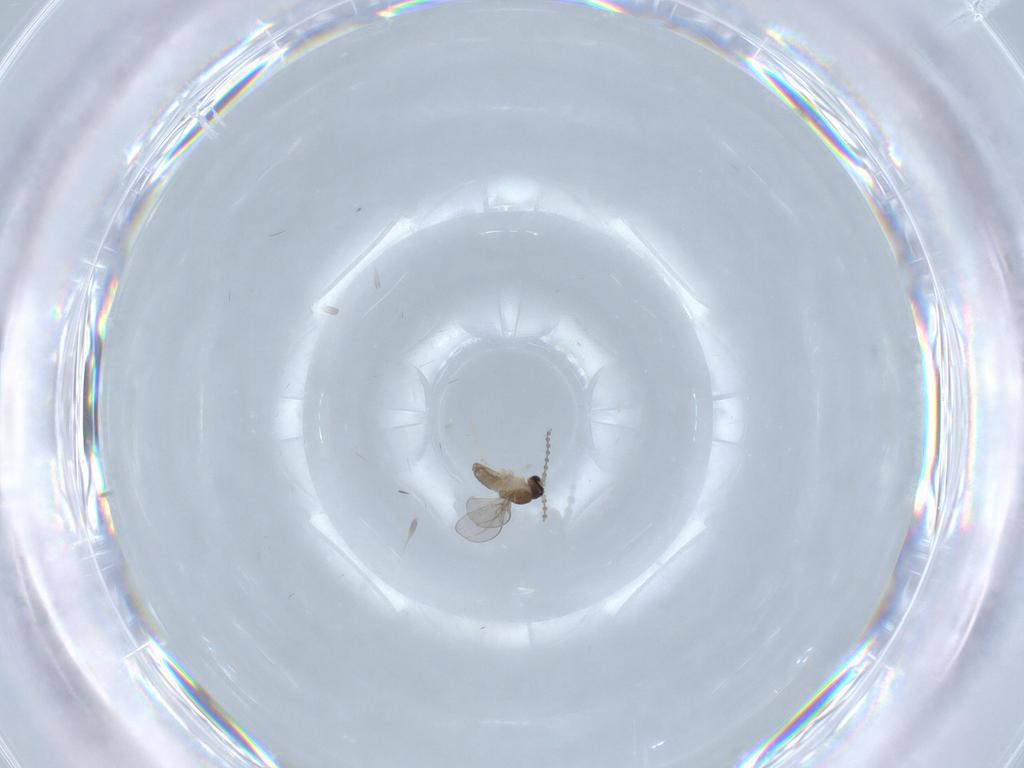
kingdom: Animalia
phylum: Arthropoda
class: Insecta
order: Diptera
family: Cecidomyiidae
